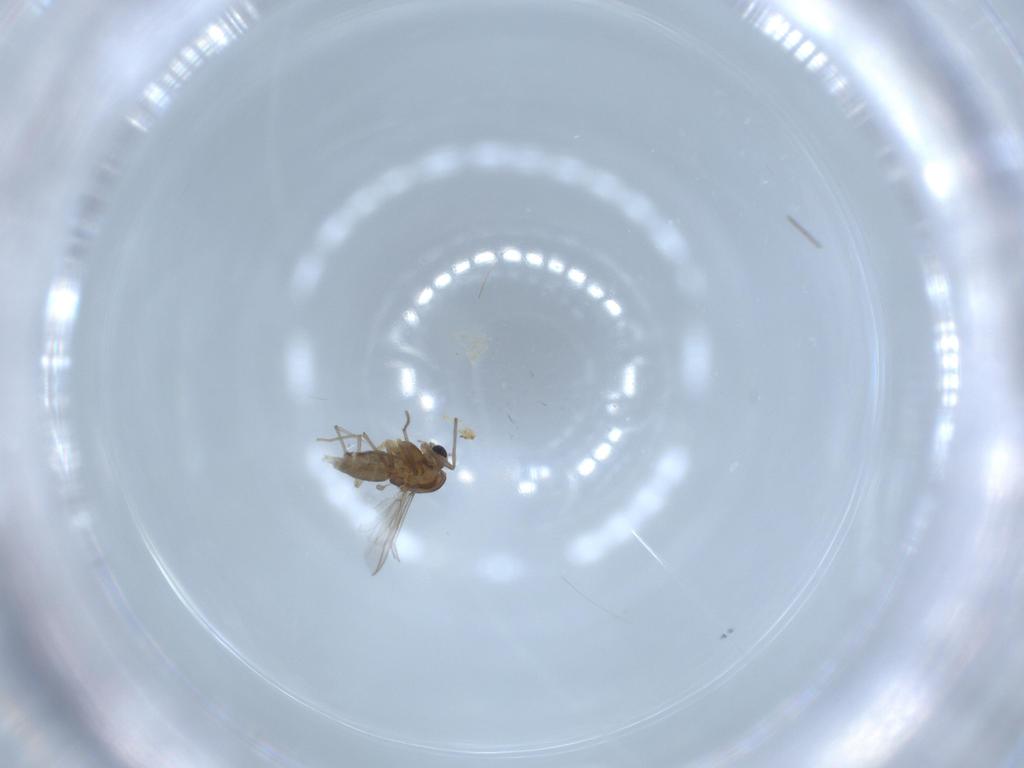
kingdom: Animalia
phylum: Arthropoda
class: Insecta
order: Diptera
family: Chironomidae
